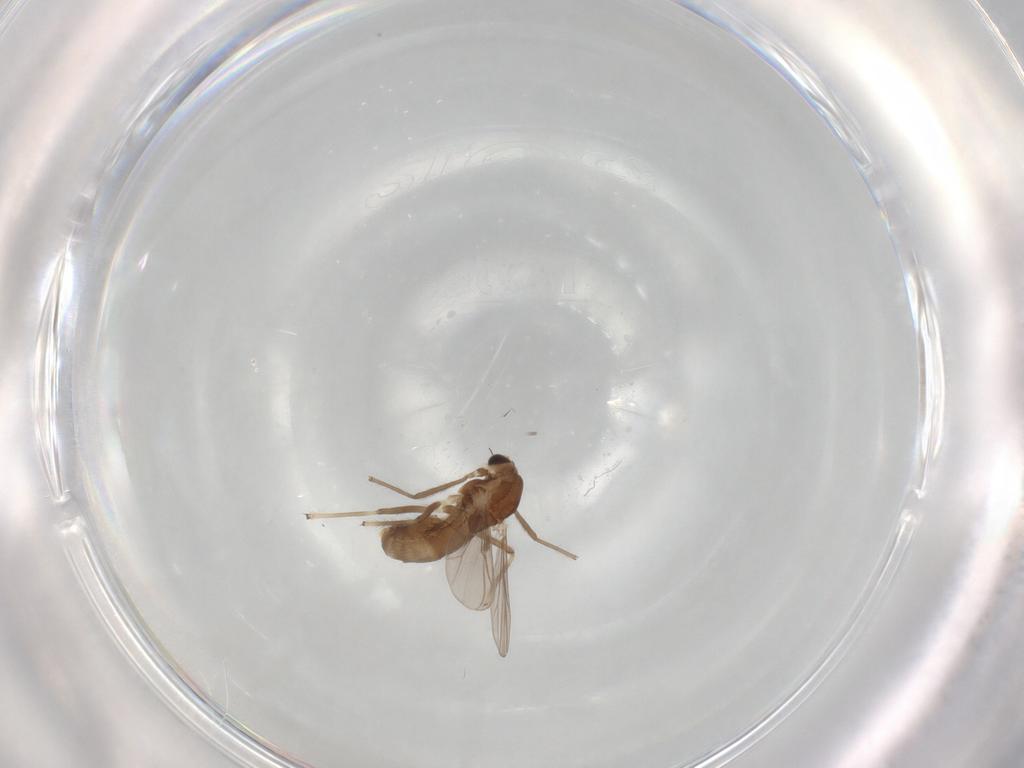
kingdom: Animalia
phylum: Arthropoda
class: Insecta
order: Diptera
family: Chironomidae
